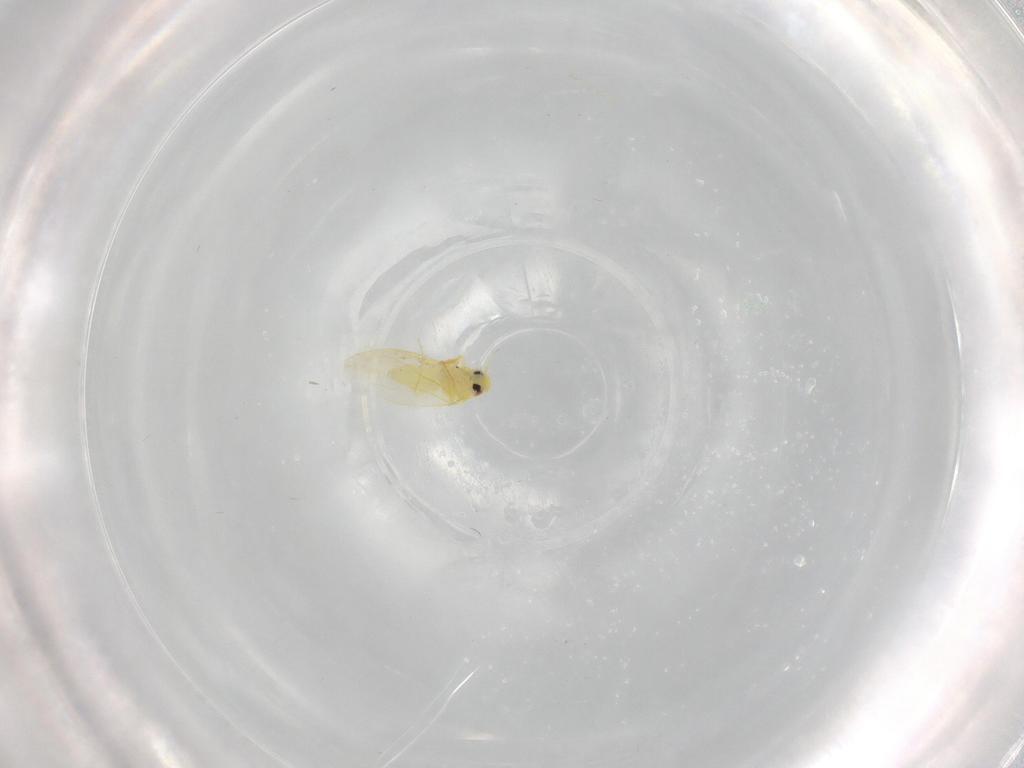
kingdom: Animalia
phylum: Arthropoda
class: Insecta
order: Hemiptera
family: Aleyrodidae
